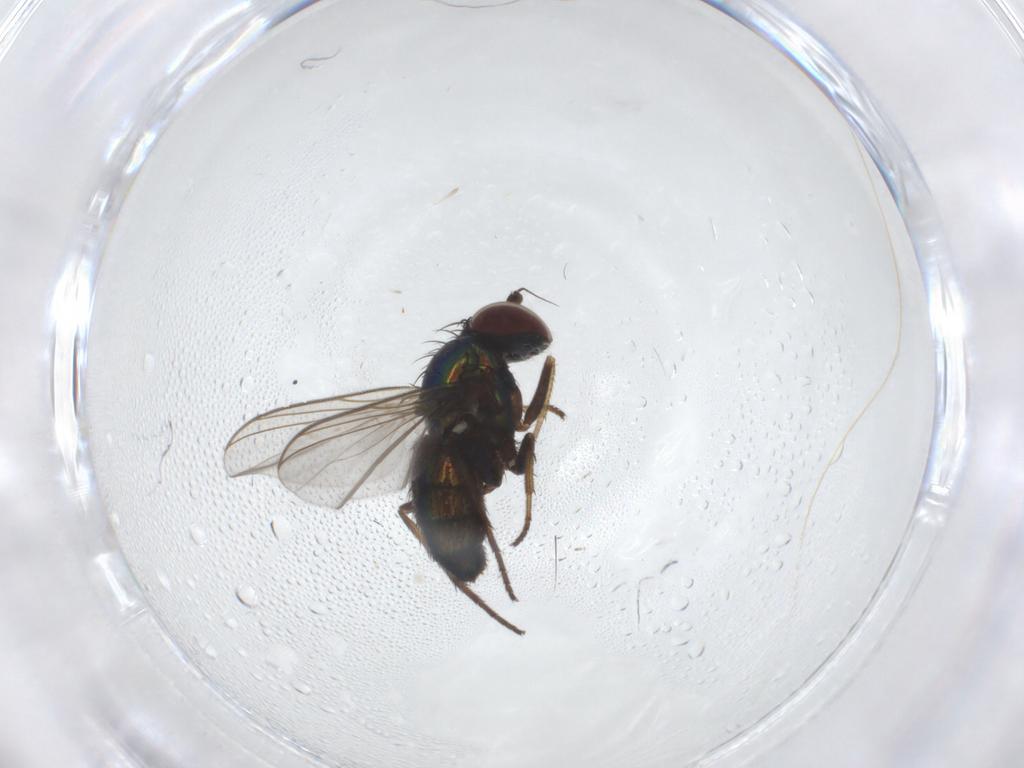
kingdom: Animalia
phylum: Arthropoda
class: Insecta
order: Diptera
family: Dolichopodidae
